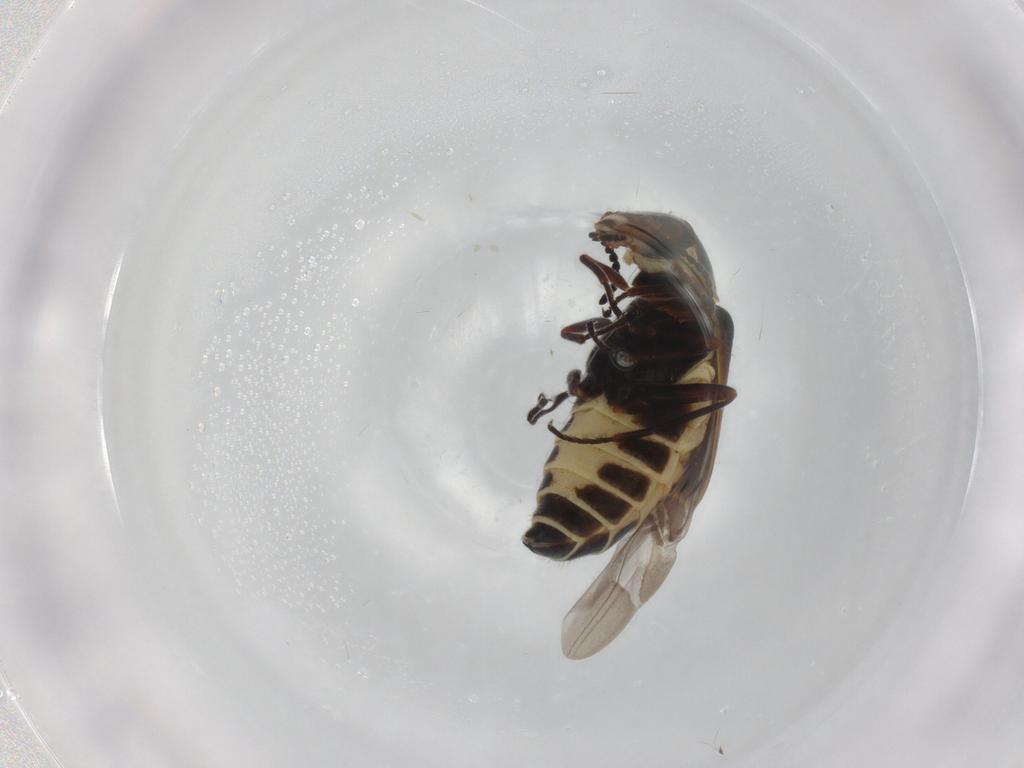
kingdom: Animalia
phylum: Arthropoda
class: Insecta
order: Coleoptera
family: Melyridae
